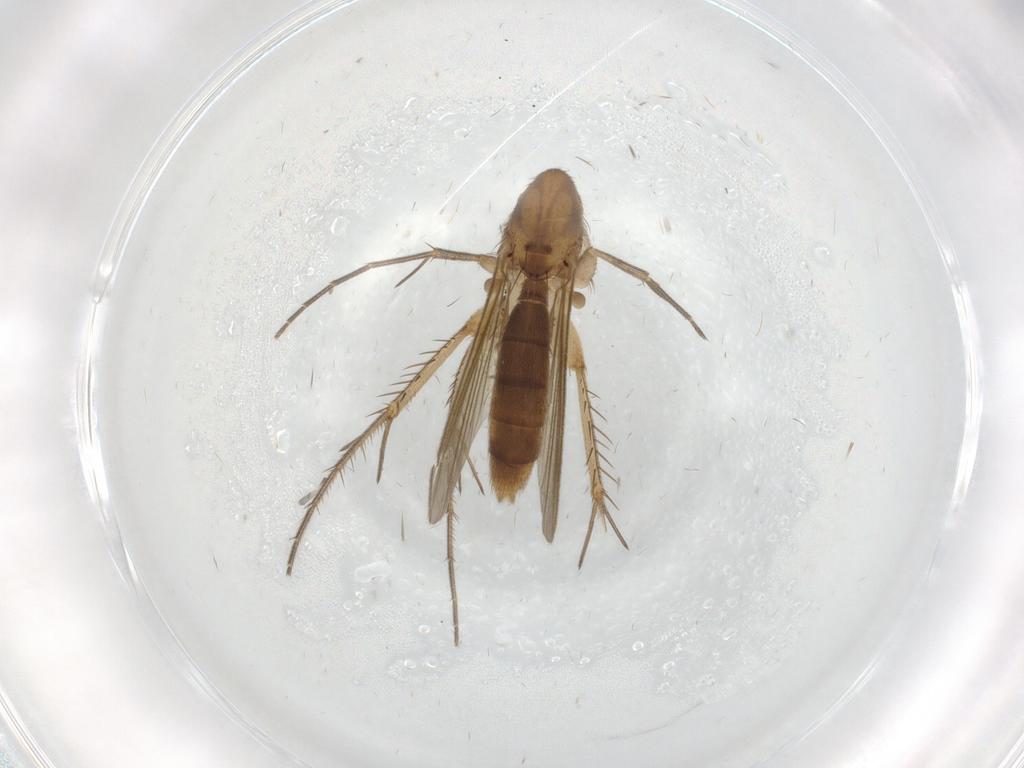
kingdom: Animalia
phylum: Arthropoda
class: Insecta
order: Diptera
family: Mycetophilidae
